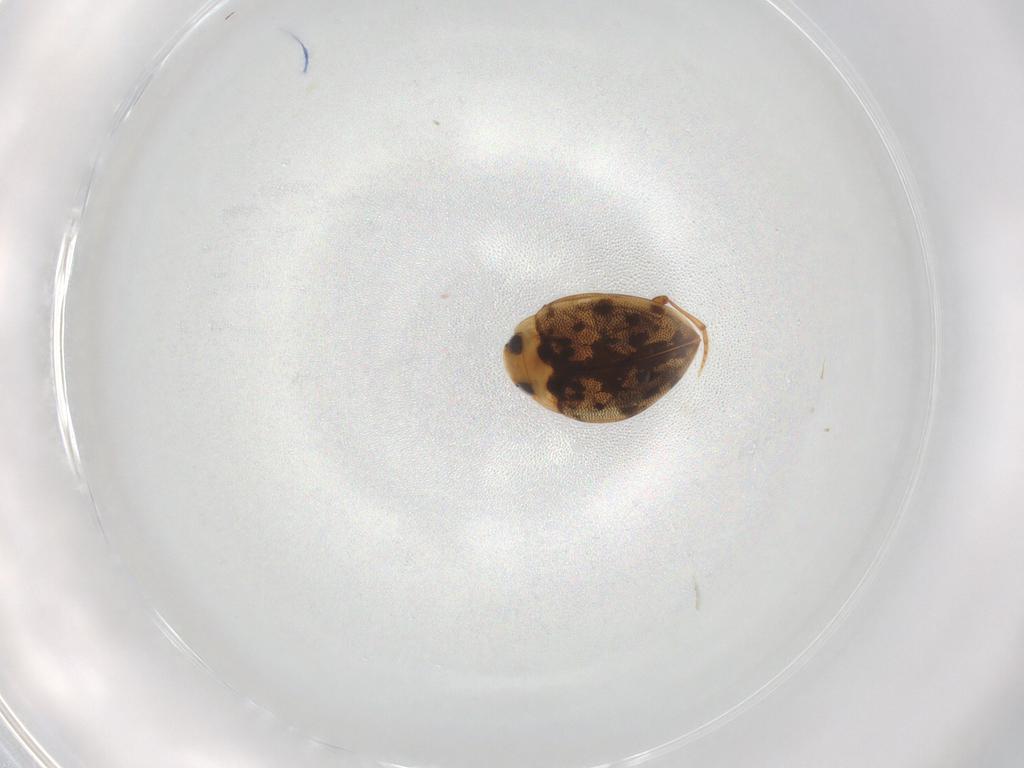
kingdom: Animalia
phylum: Arthropoda
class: Insecta
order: Coleoptera
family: Dytiscidae
